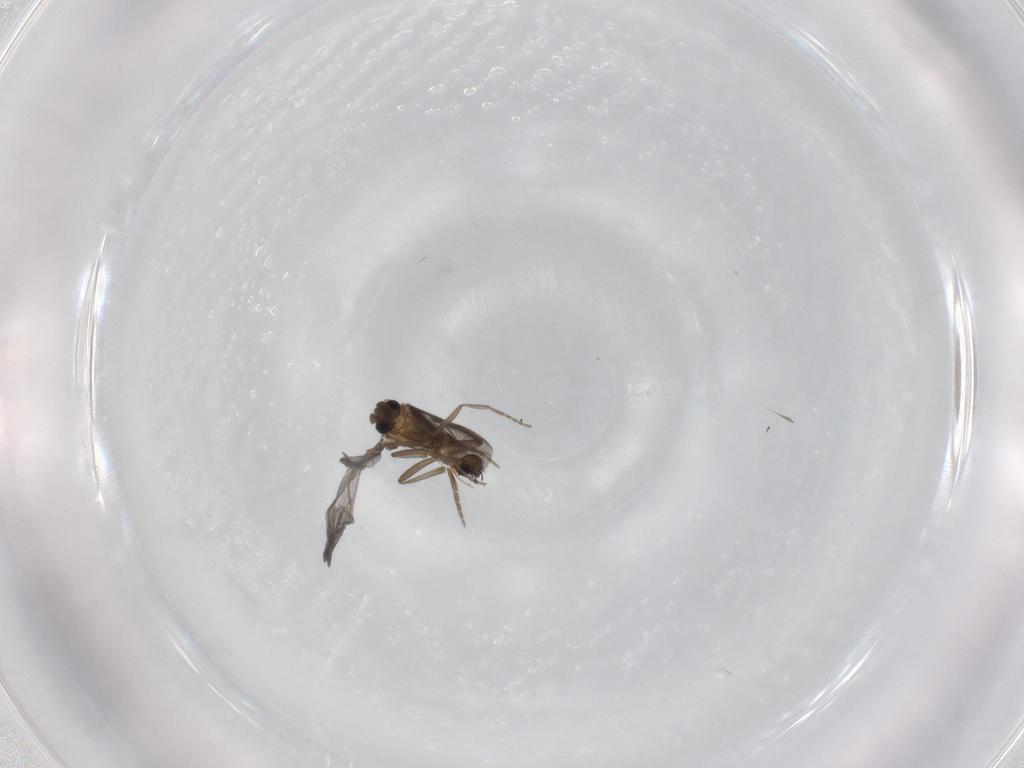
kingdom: Animalia
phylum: Arthropoda
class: Insecta
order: Diptera
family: Phoridae
